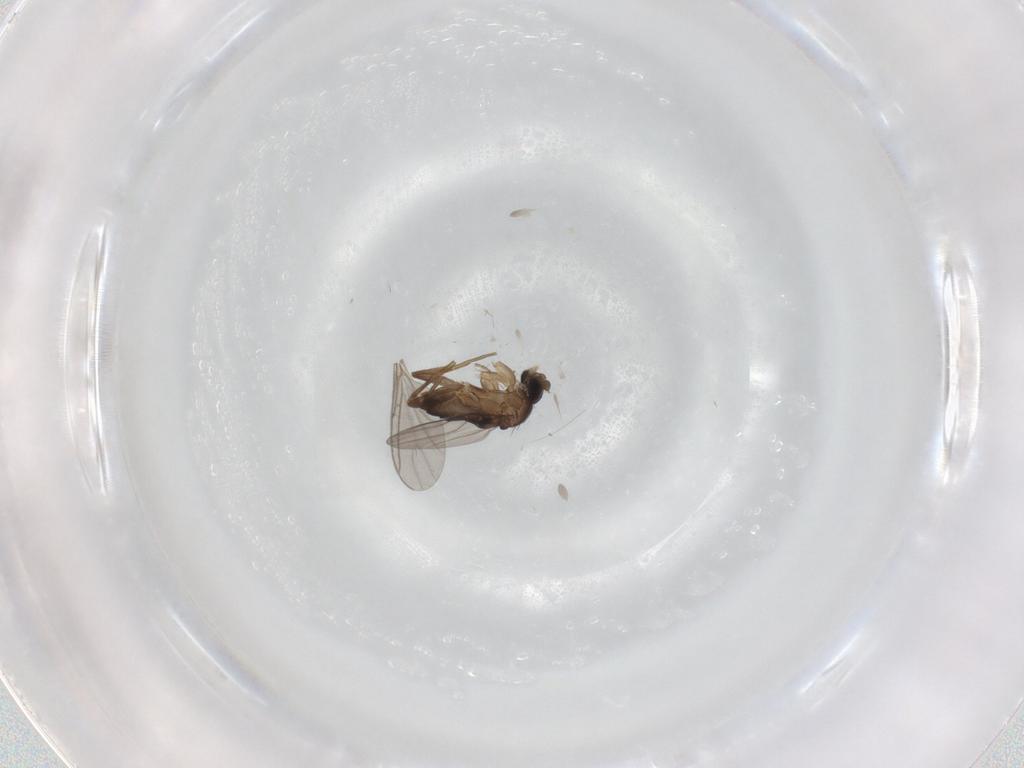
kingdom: Animalia
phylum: Arthropoda
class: Insecta
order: Diptera
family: Phoridae
